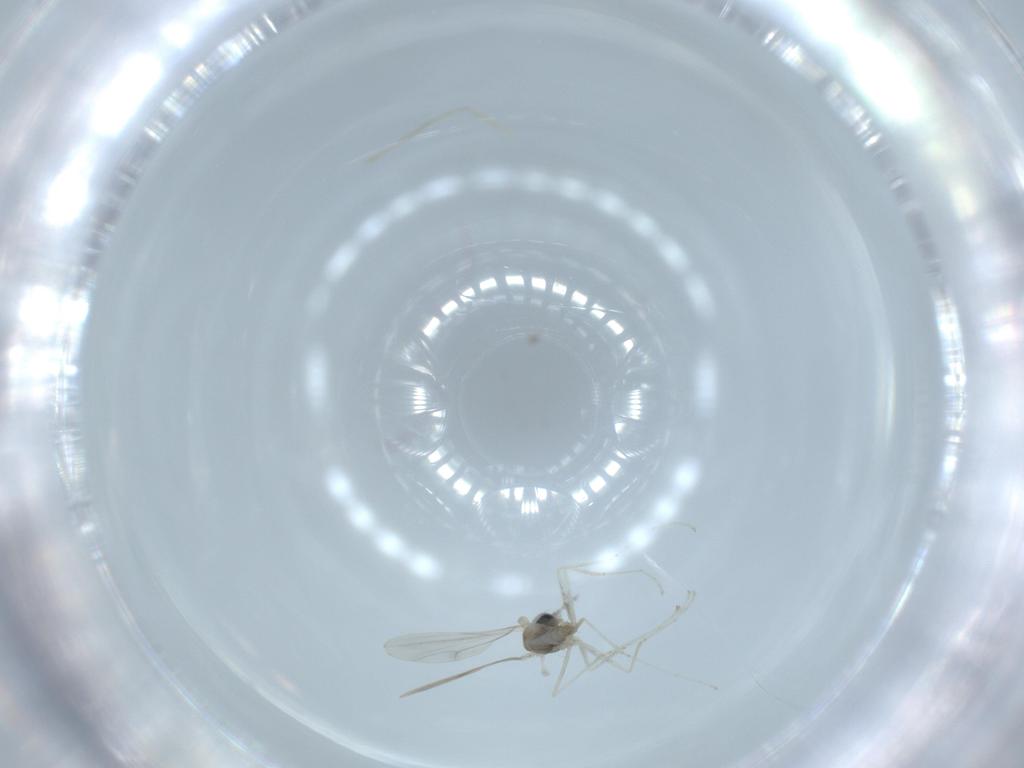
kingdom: Animalia
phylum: Arthropoda
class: Insecta
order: Diptera
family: Cecidomyiidae
